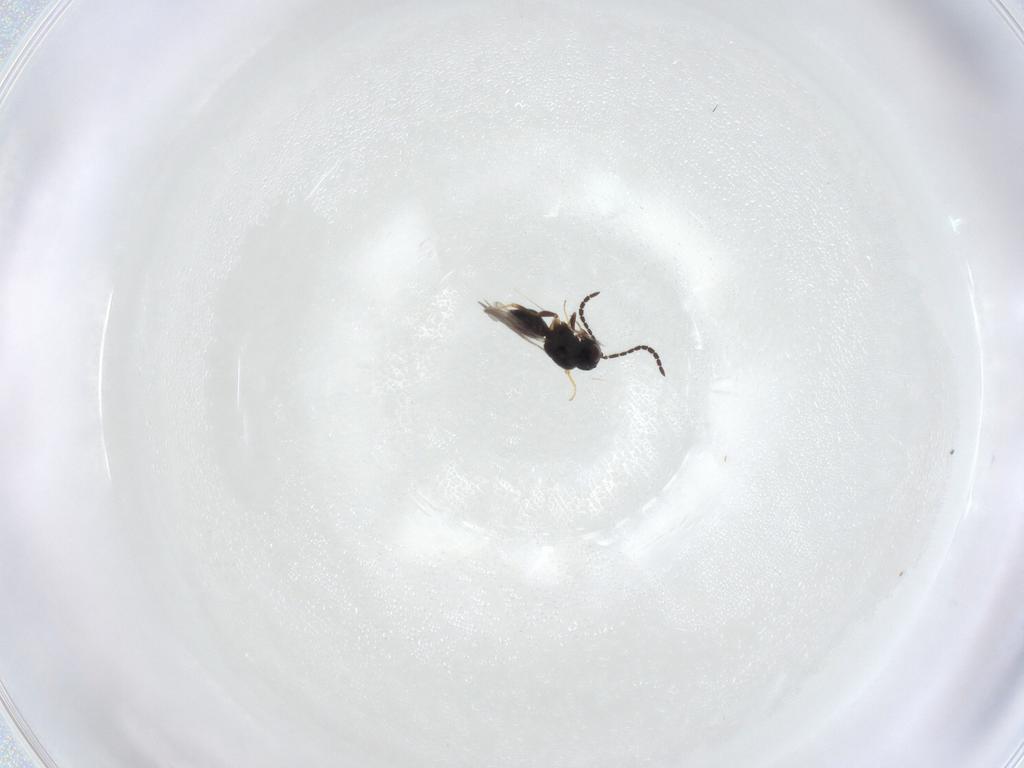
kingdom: Animalia
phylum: Arthropoda
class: Insecta
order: Hymenoptera
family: Ceraphronidae
